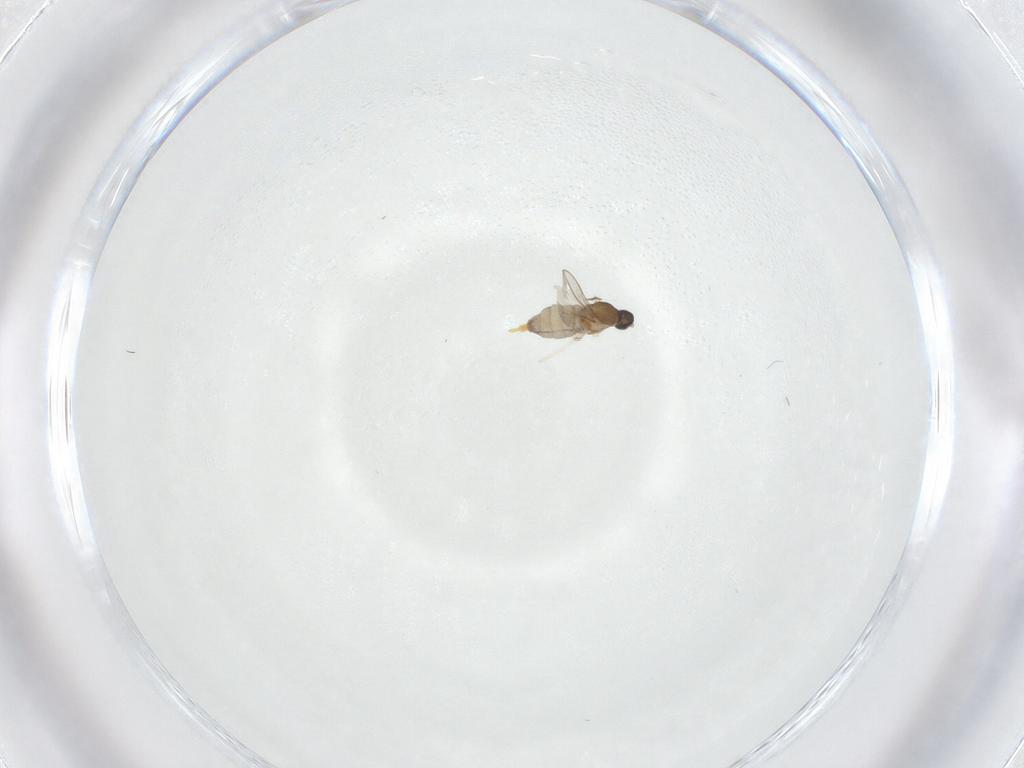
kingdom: Animalia
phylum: Arthropoda
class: Insecta
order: Diptera
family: Cecidomyiidae
